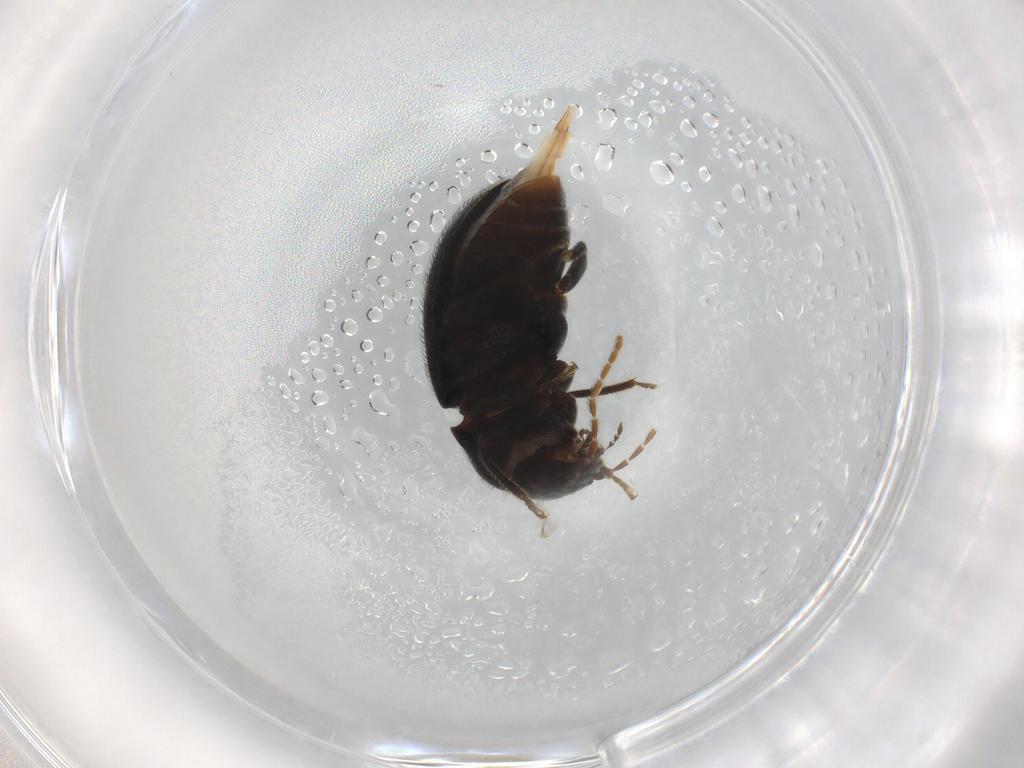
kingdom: Animalia
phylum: Arthropoda
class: Insecta
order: Coleoptera
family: Ptilodactylidae
